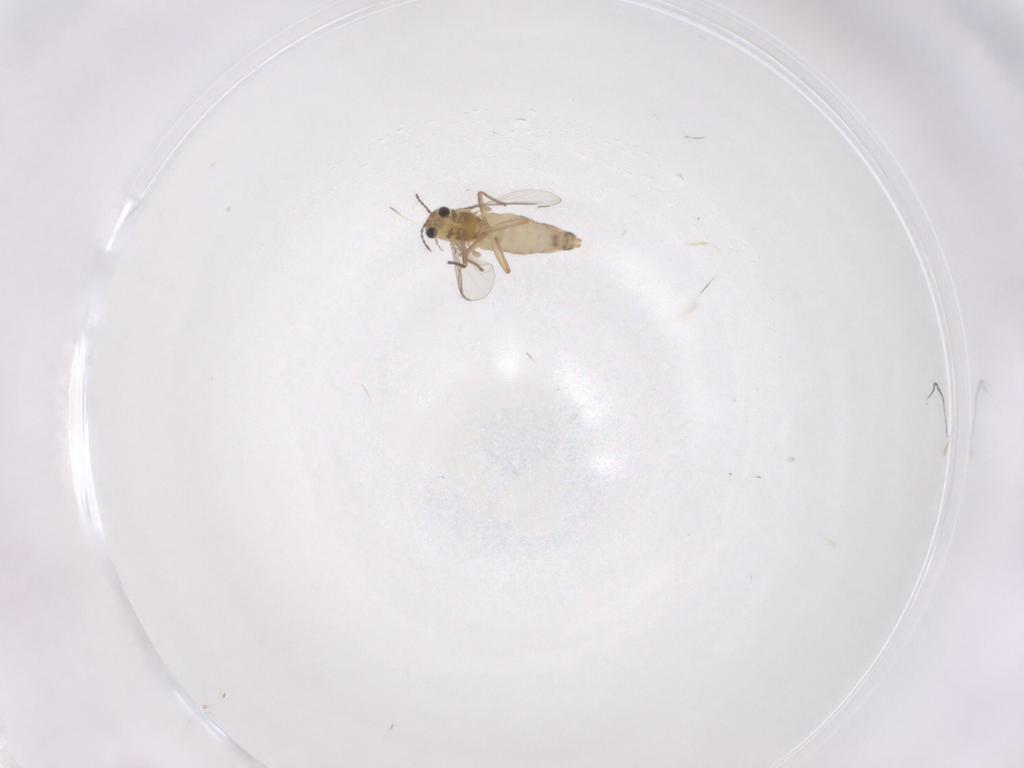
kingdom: Animalia
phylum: Arthropoda
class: Insecta
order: Diptera
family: Chironomidae
